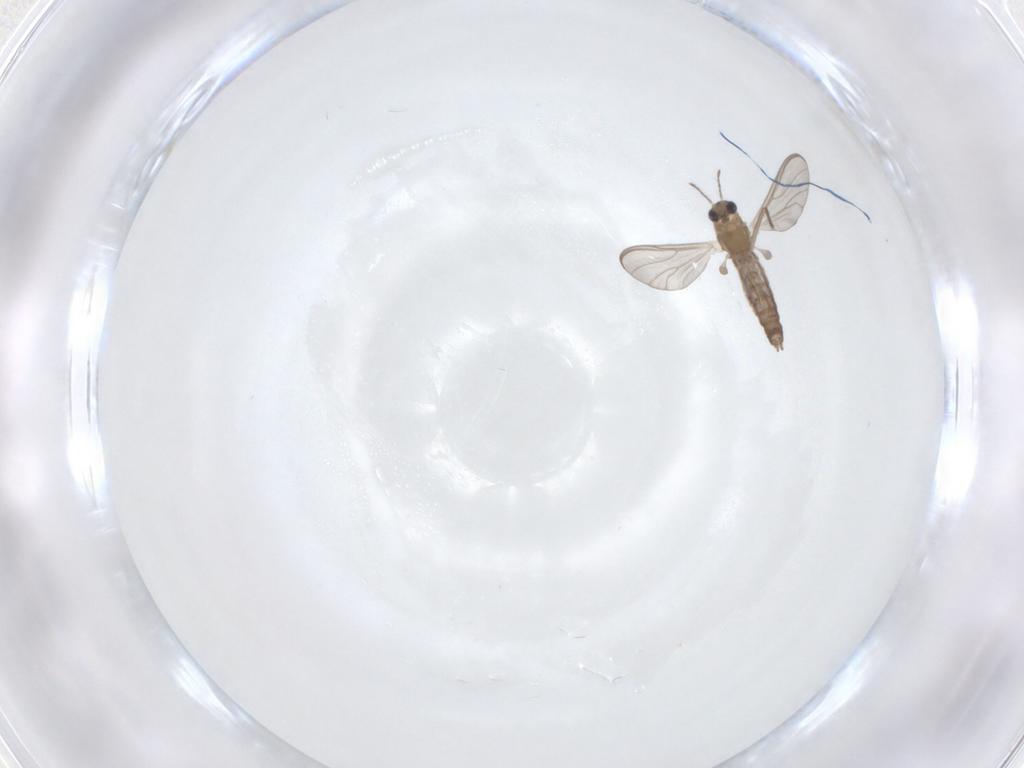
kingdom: Animalia
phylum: Arthropoda
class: Insecta
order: Diptera
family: Chironomidae
